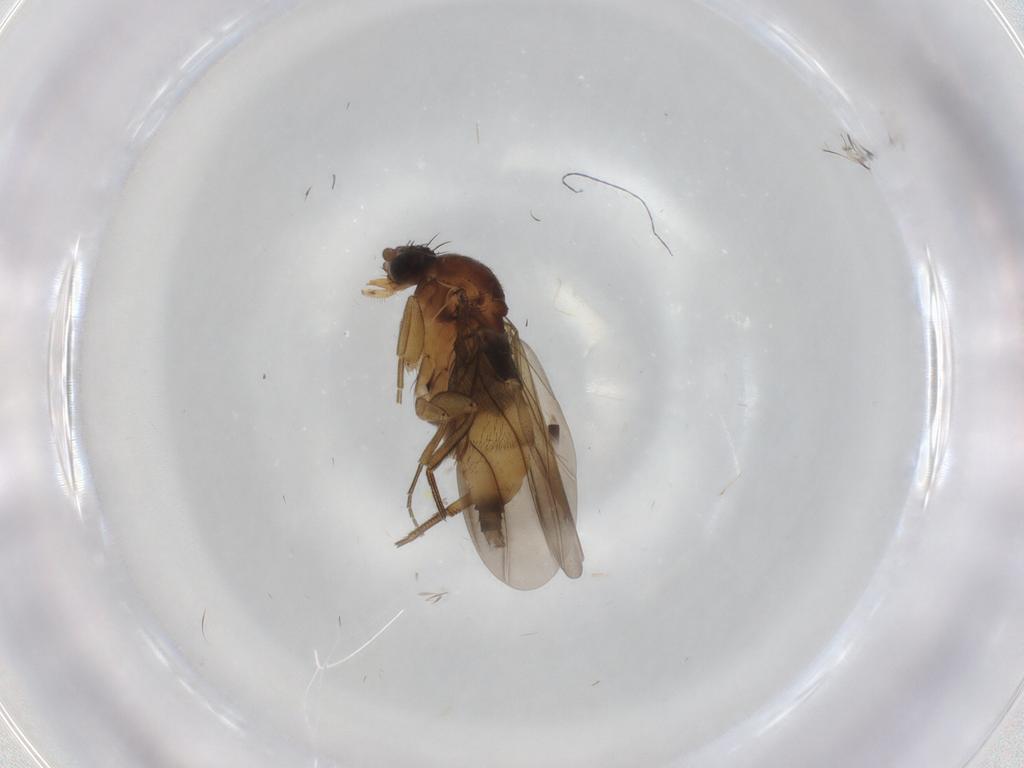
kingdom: Animalia
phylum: Arthropoda
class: Insecta
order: Diptera
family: Phoridae
